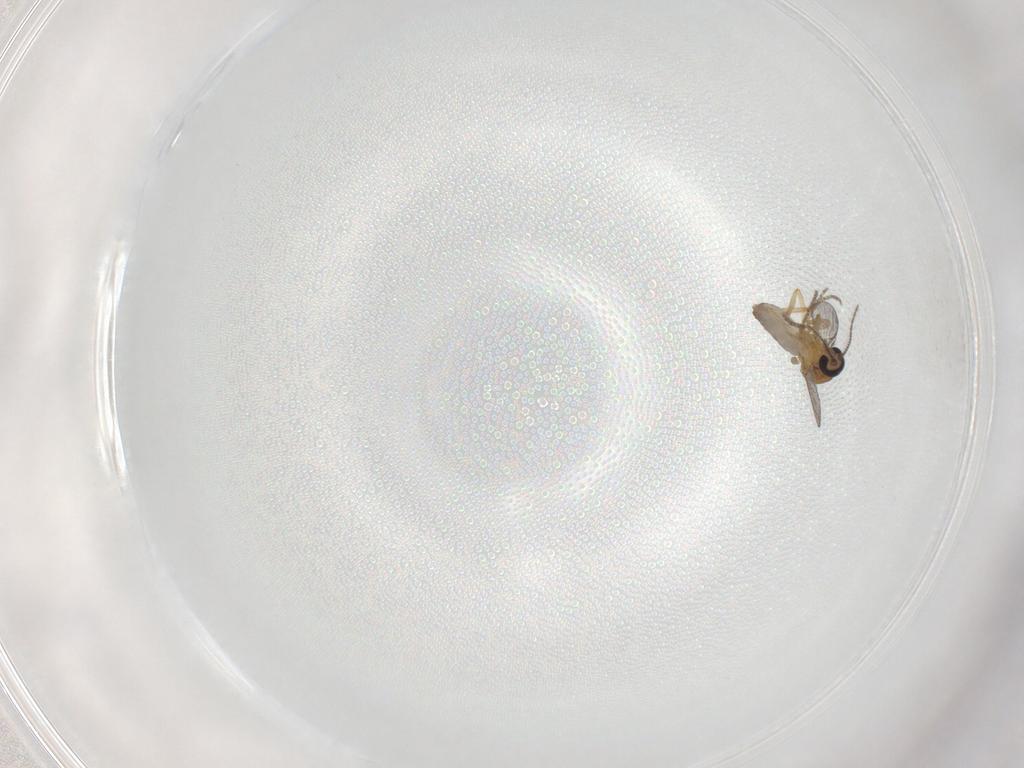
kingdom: Animalia
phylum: Arthropoda
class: Insecta
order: Diptera
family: Ceratopogonidae
